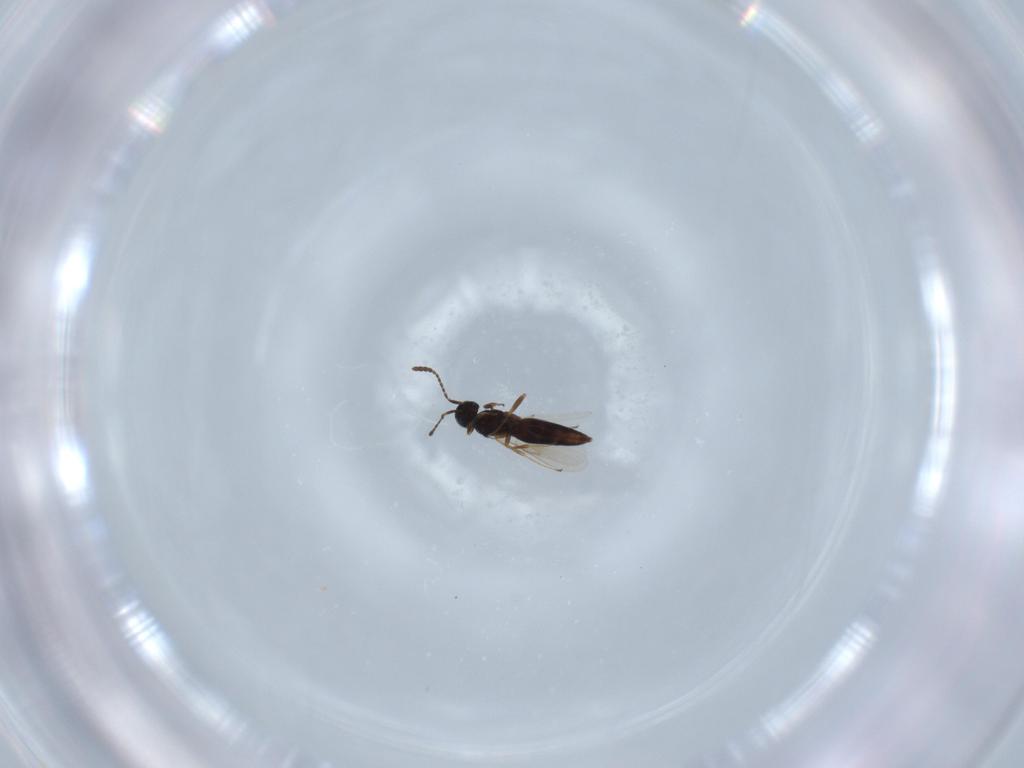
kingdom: Animalia
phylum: Arthropoda
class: Insecta
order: Hymenoptera
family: Scelionidae
